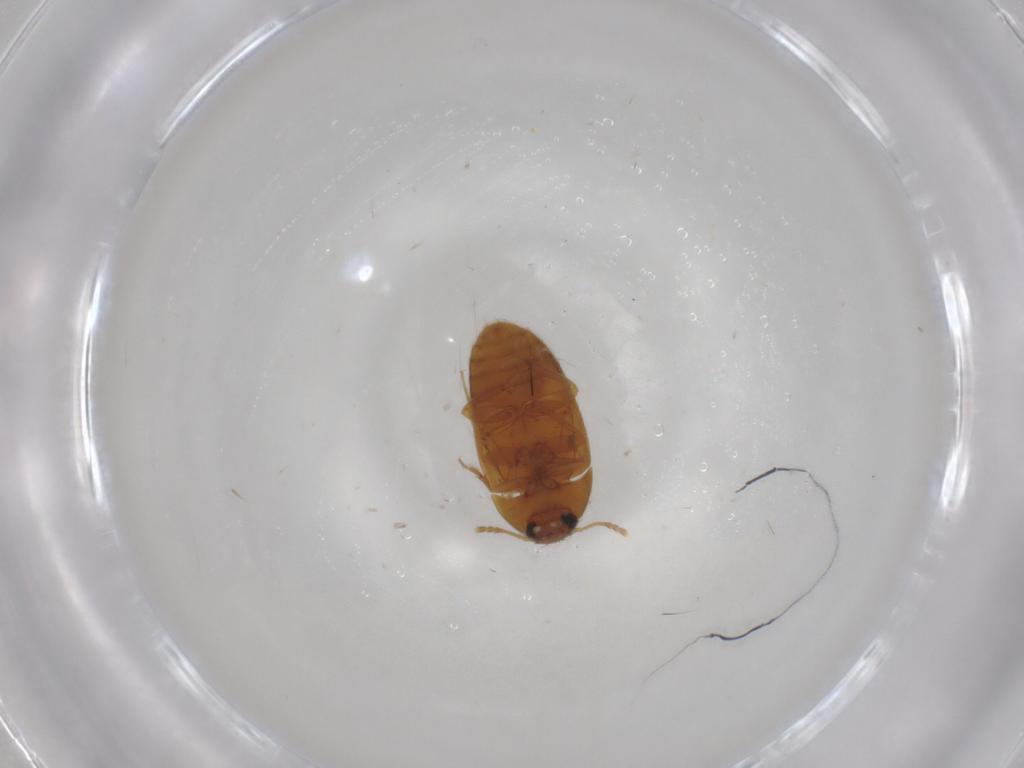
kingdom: Animalia
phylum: Arthropoda
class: Insecta
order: Coleoptera
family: Mycetophagidae
